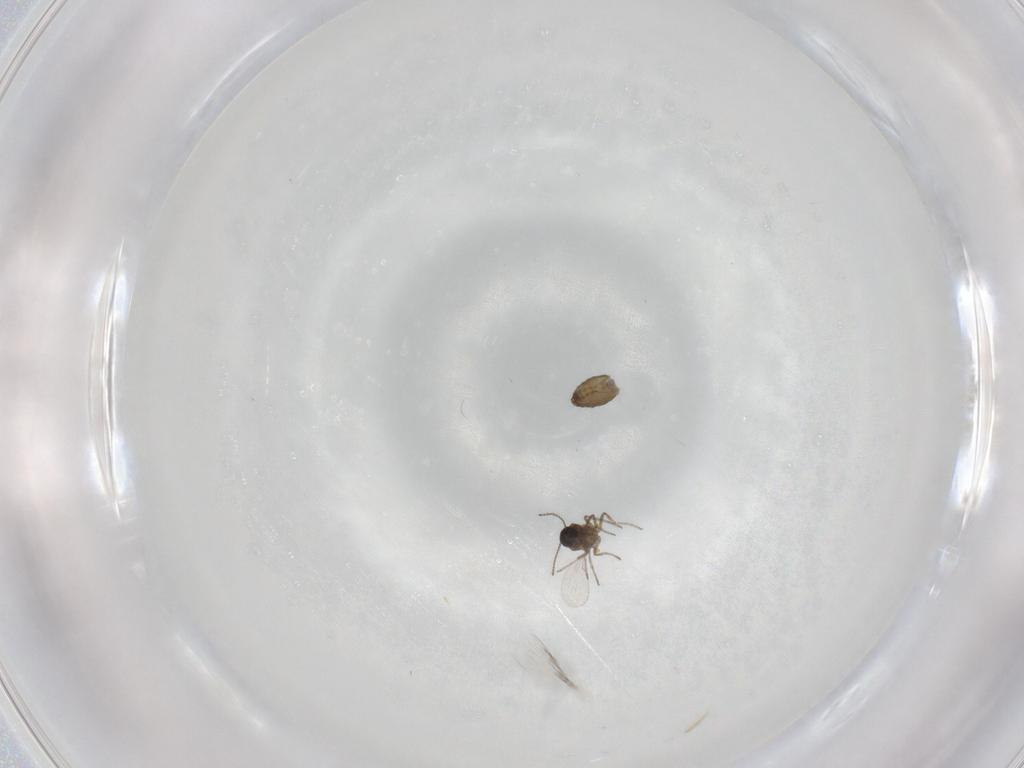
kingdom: Animalia
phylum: Arthropoda
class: Insecta
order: Diptera
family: Ceratopogonidae
